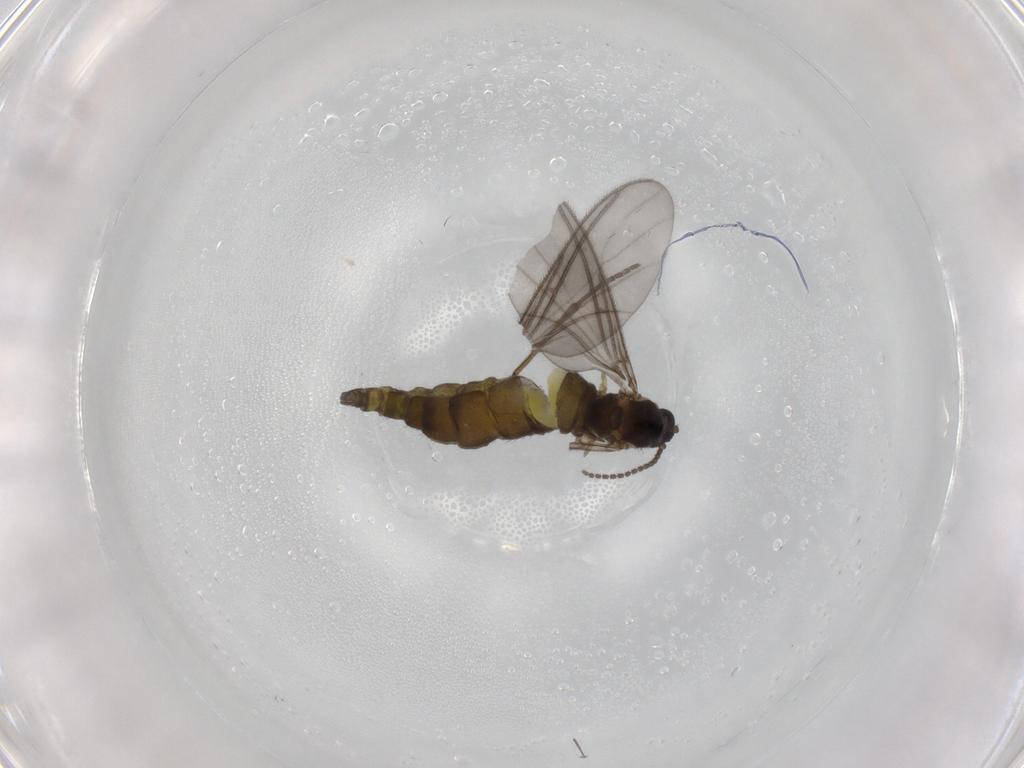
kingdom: Animalia
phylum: Arthropoda
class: Insecta
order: Diptera
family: Sciaridae
